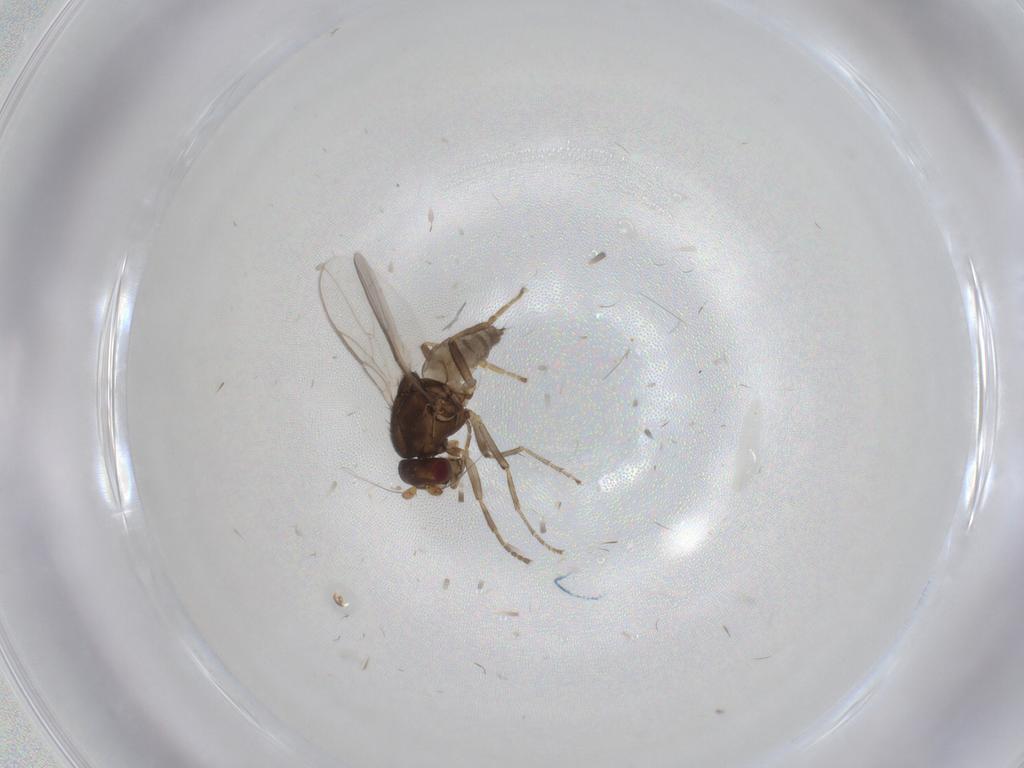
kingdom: Animalia
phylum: Arthropoda
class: Insecta
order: Diptera
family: Sphaeroceridae
